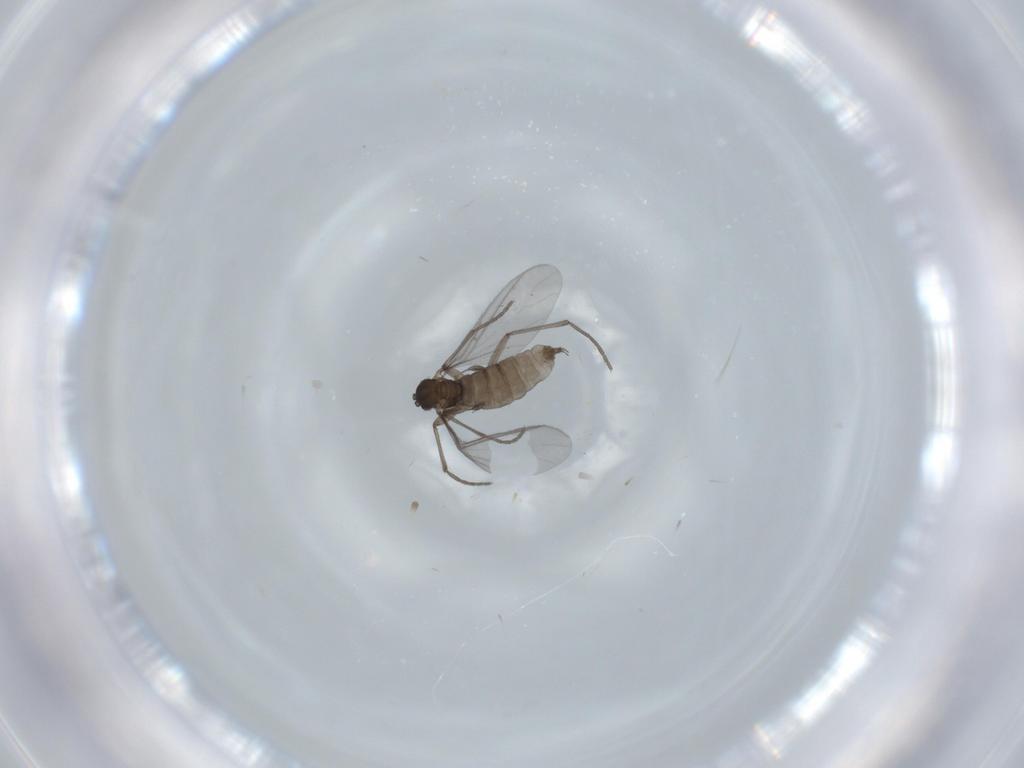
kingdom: Animalia
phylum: Arthropoda
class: Insecta
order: Diptera
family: Sciaridae
